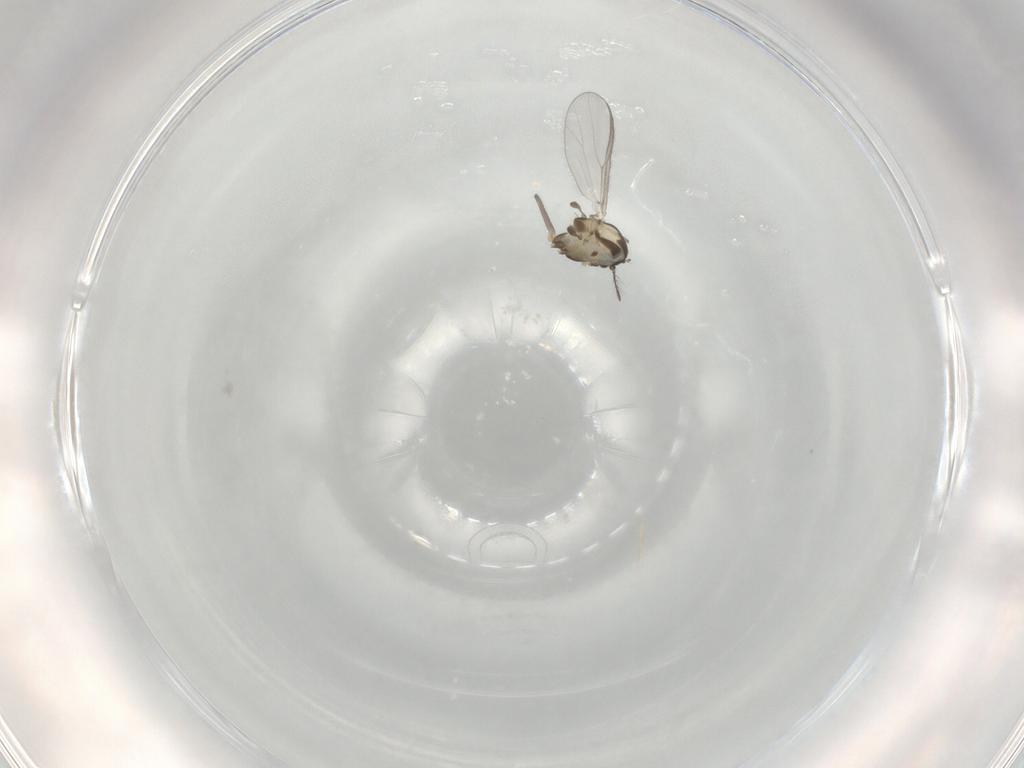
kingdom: Animalia
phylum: Arthropoda
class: Insecta
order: Diptera
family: Chironomidae
